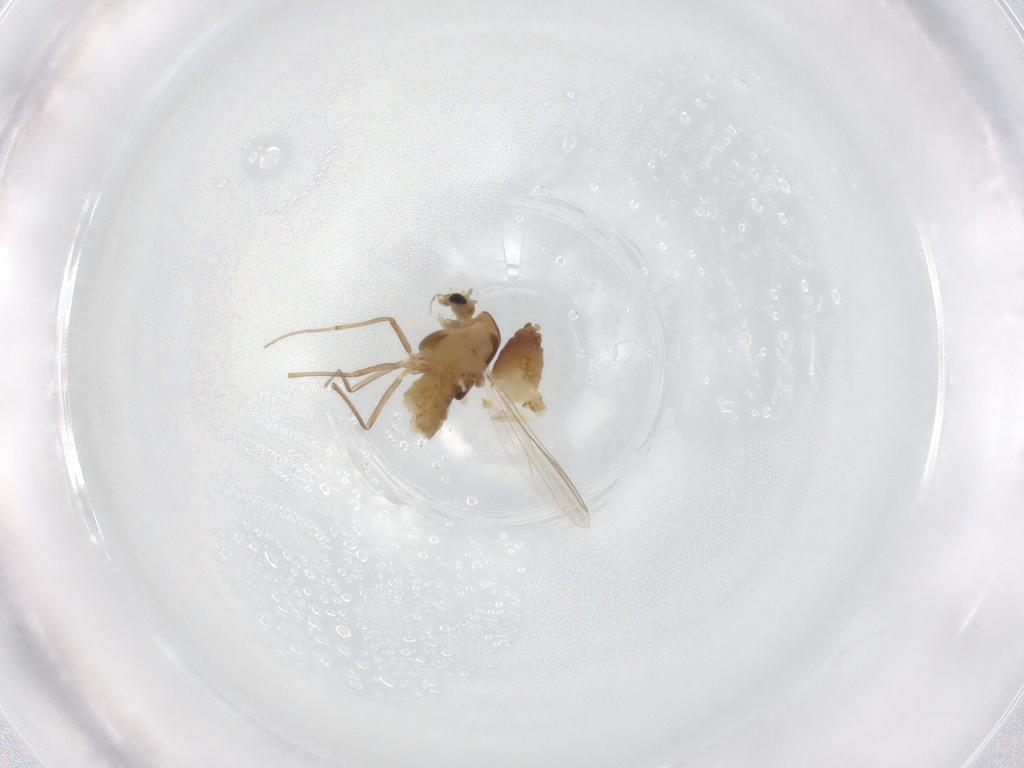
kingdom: Animalia
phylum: Arthropoda
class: Insecta
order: Diptera
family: Chironomidae
